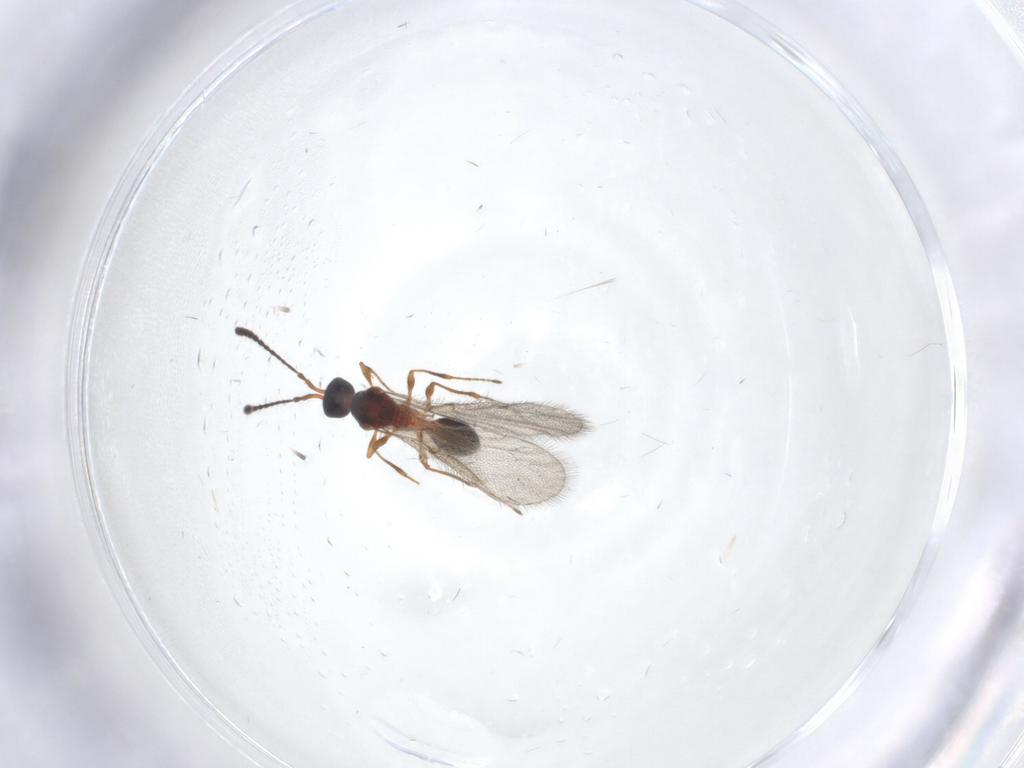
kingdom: Animalia
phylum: Arthropoda
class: Insecta
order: Hymenoptera
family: Diapriidae
